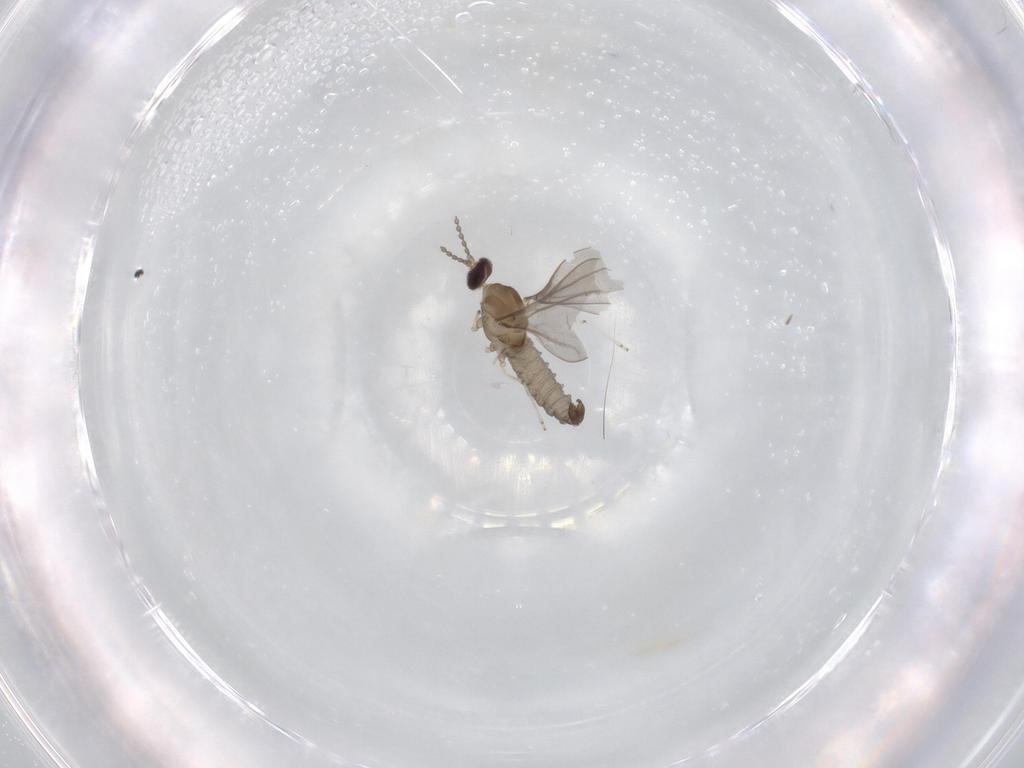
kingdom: Animalia
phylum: Arthropoda
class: Insecta
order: Diptera
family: Cecidomyiidae
